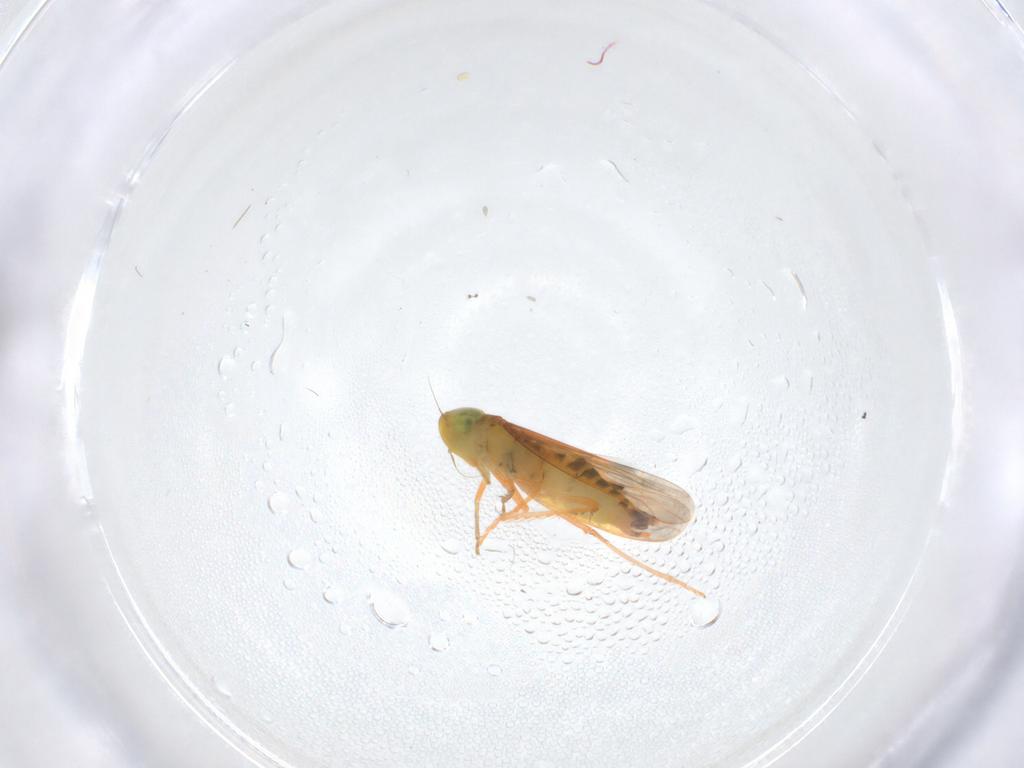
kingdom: Animalia
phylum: Arthropoda
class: Insecta
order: Hemiptera
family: Cicadellidae
